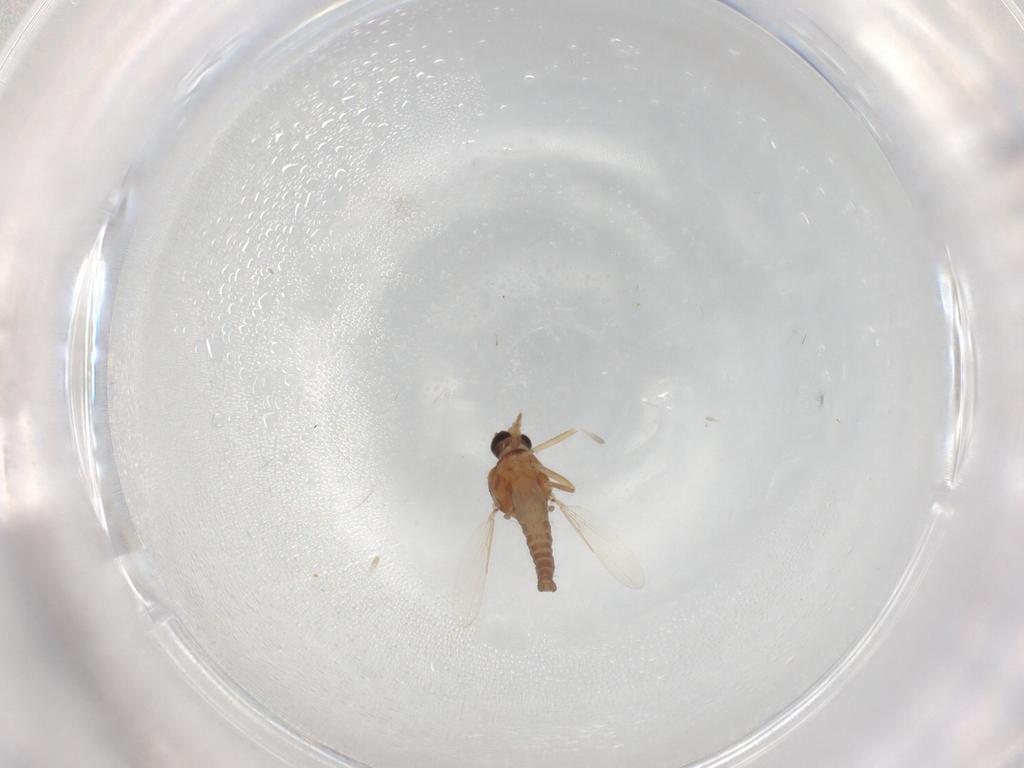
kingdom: Animalia
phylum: Arthropoda
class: Insecta
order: Diptera
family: Ceratopogonidae
